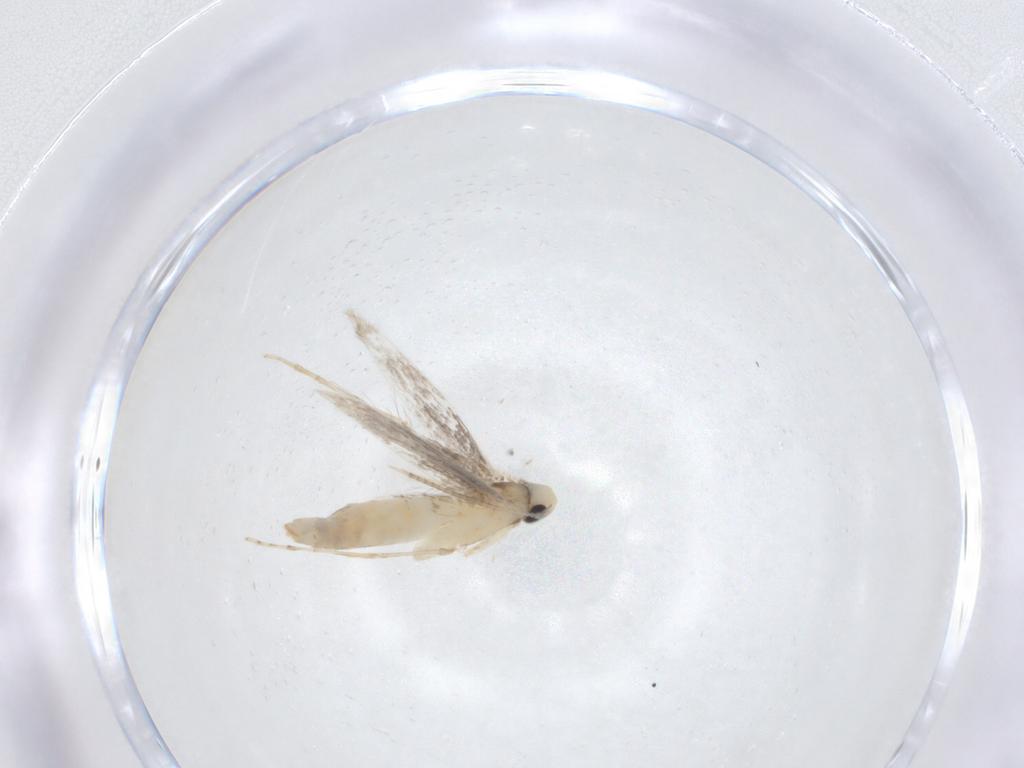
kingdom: Animalia
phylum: Arthropoda
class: Insecta
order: Lepidoptera
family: Dryadaulidae
